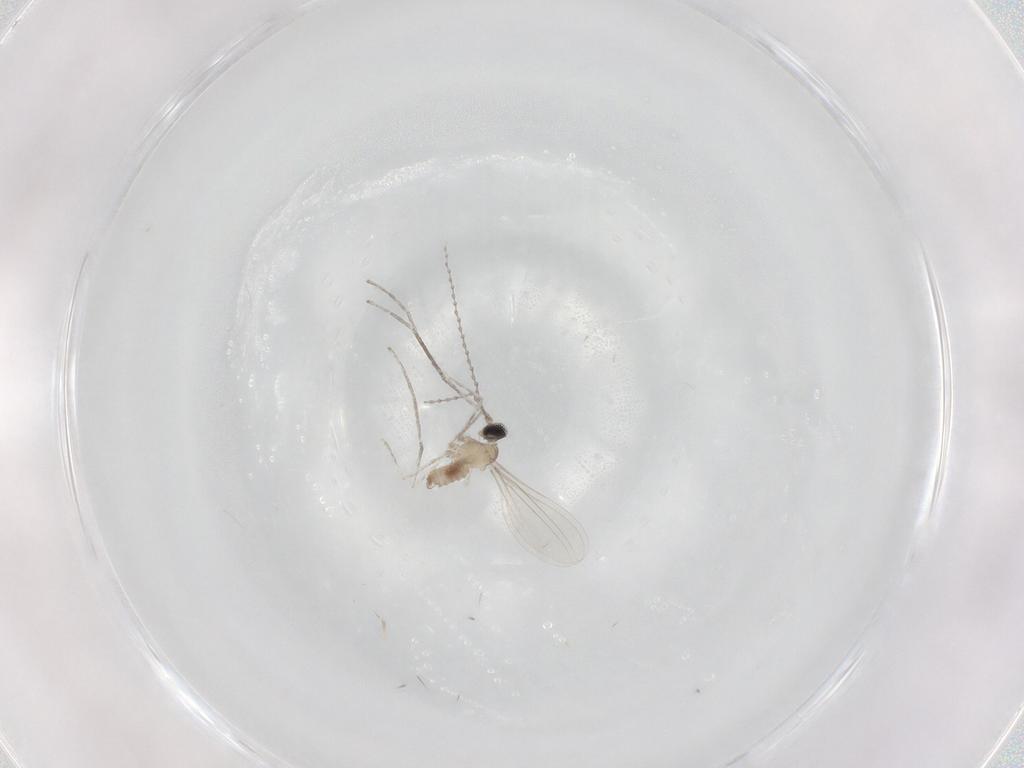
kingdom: Animalia
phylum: Arthropoda
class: Insecta
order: Diptera
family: Cecidomyiidae
